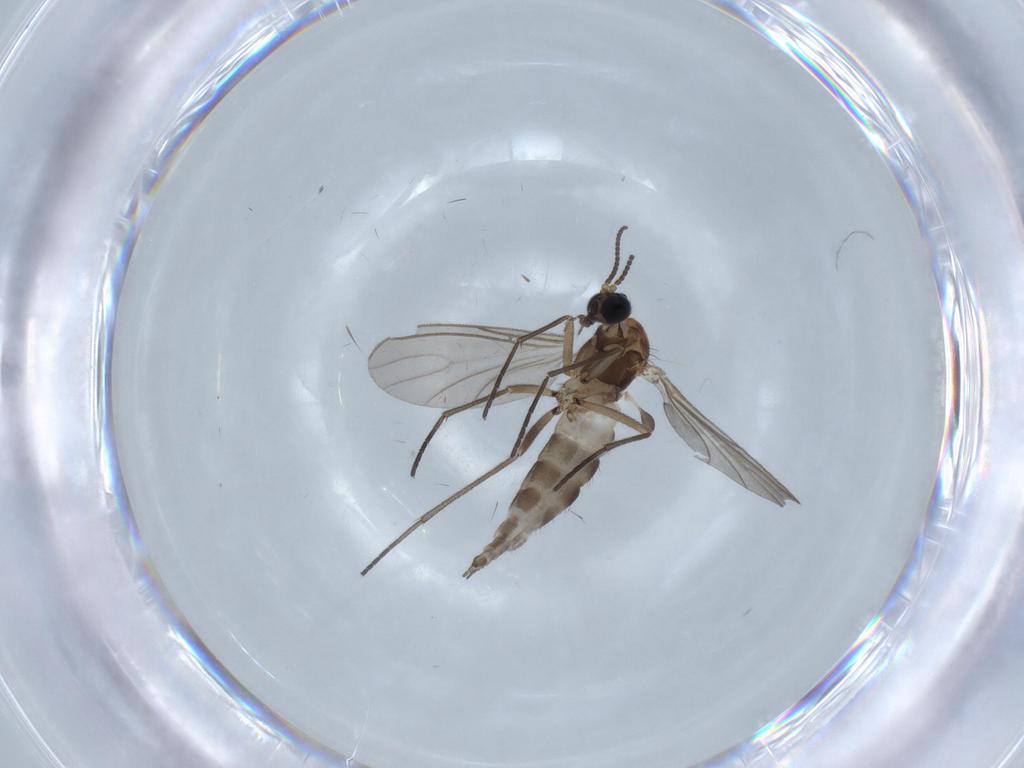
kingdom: Animalia
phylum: Arthropoda
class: Insecta
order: Diptera
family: Sciaridae
